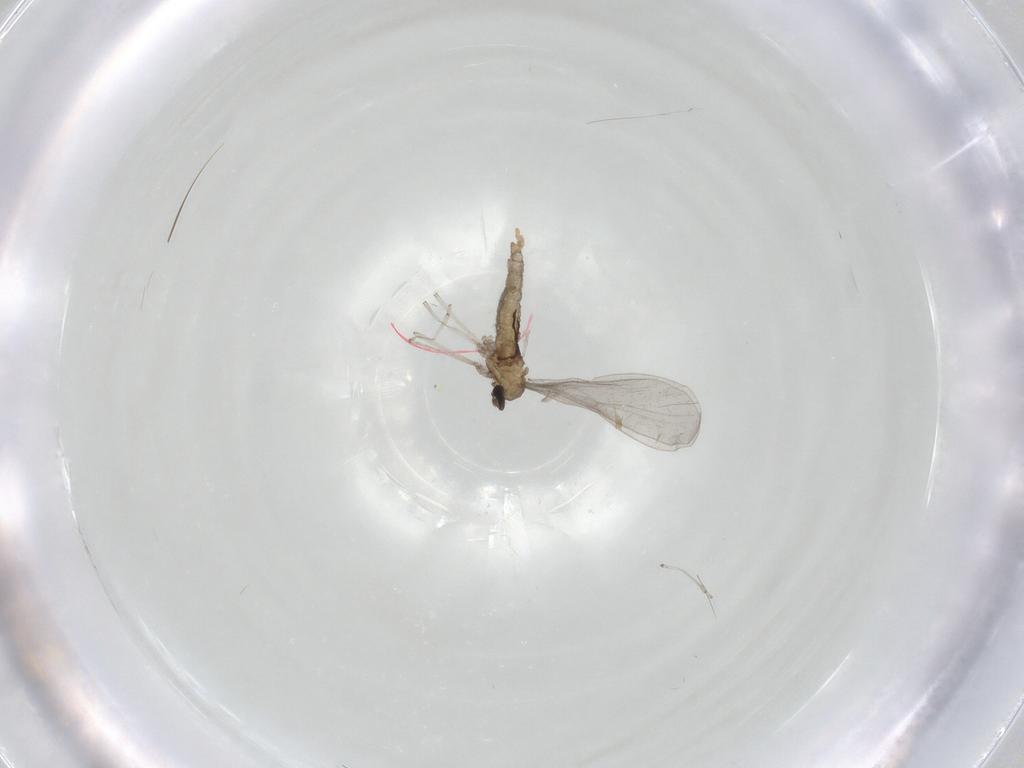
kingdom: Animalia
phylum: Arthropoda
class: Insecta
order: Diptera
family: Cecidomyiidae
